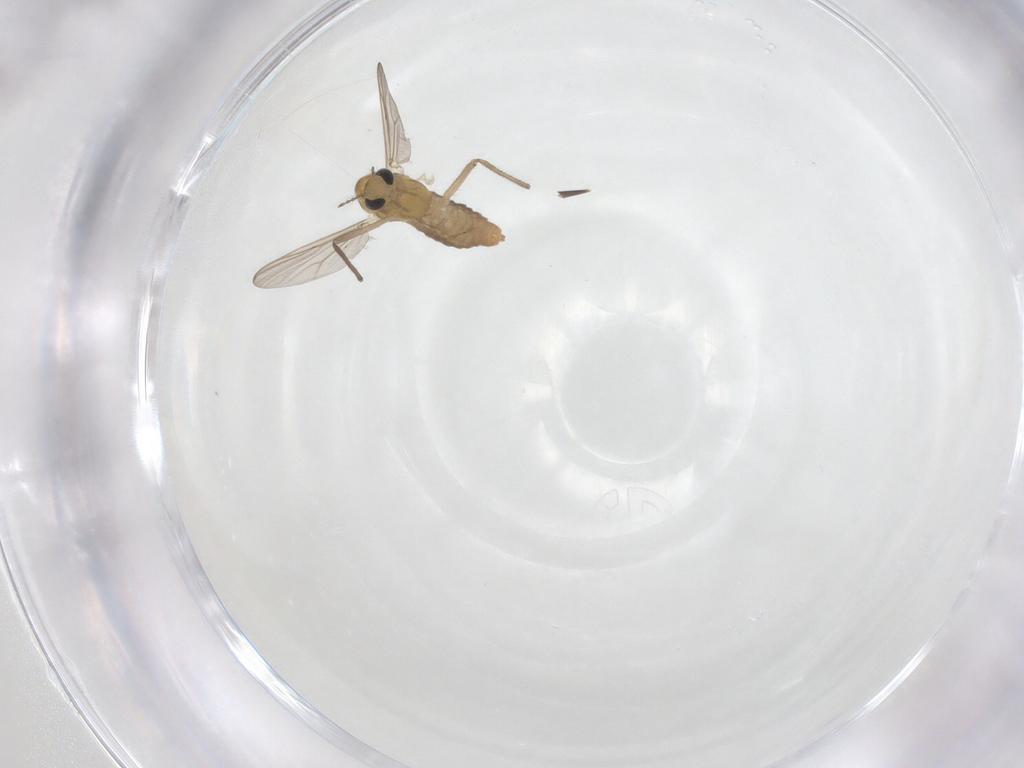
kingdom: Animalia
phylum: Arthropoda
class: Insecta
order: Diptera
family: Chironomidae
